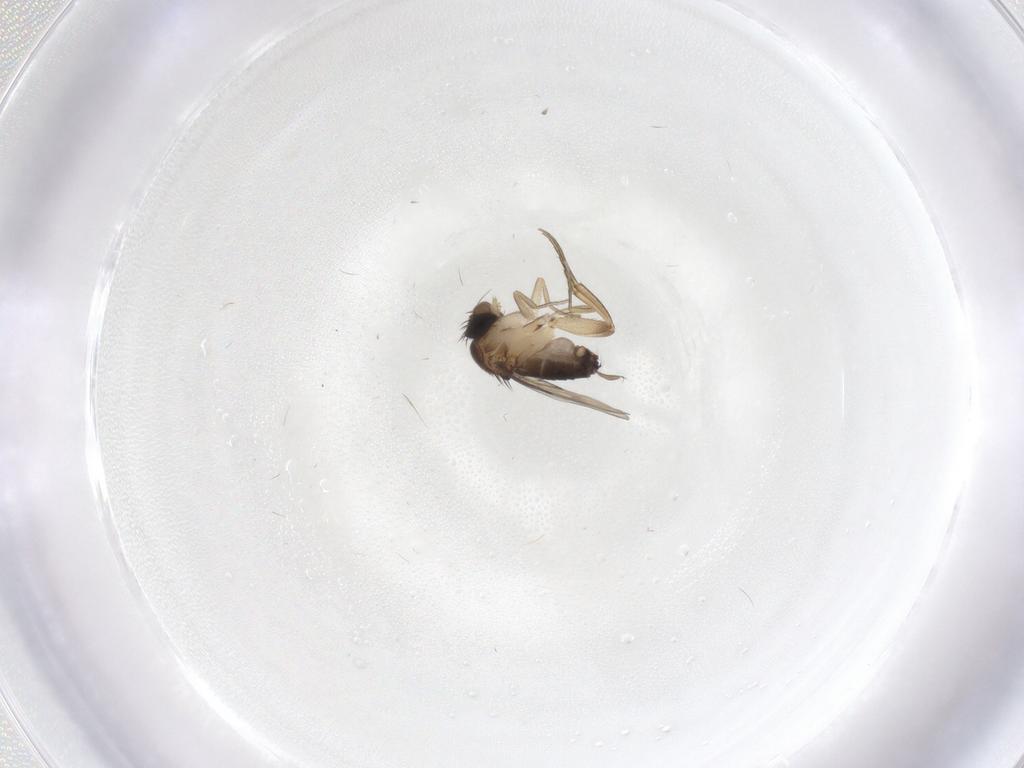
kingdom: Animalia
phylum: Arthropoda
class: Insecta
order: Diptera
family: Phoridae
